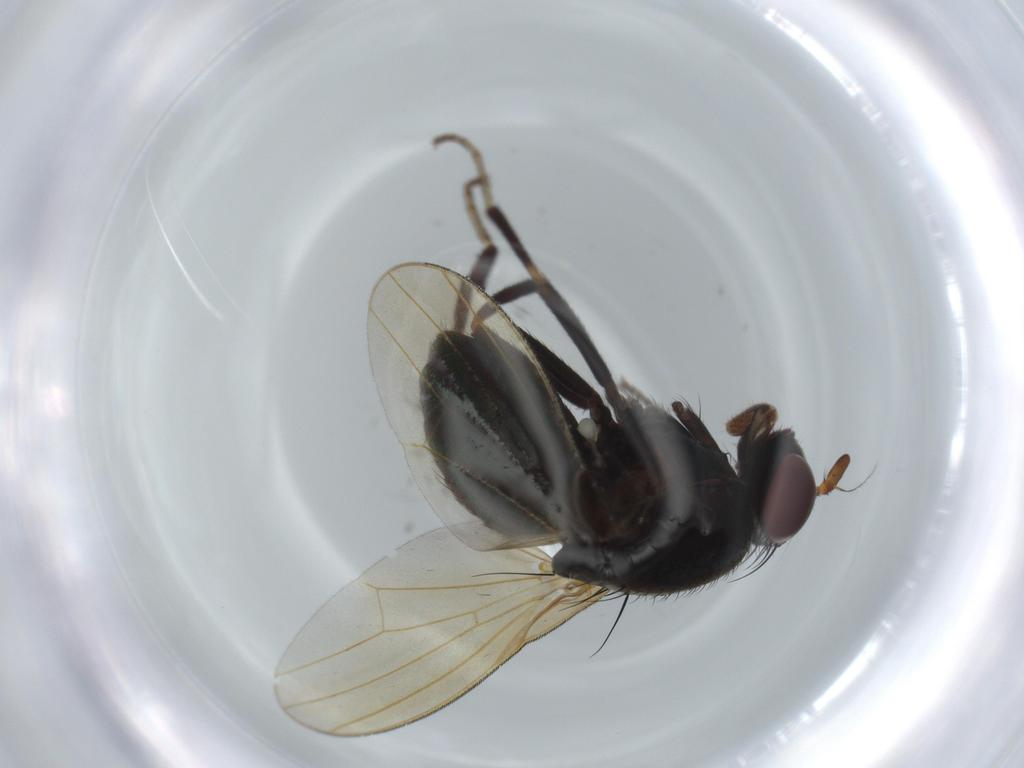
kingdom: Animalia
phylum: Arthropoda
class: Insecta
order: Diptera
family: Lauxaniidae
